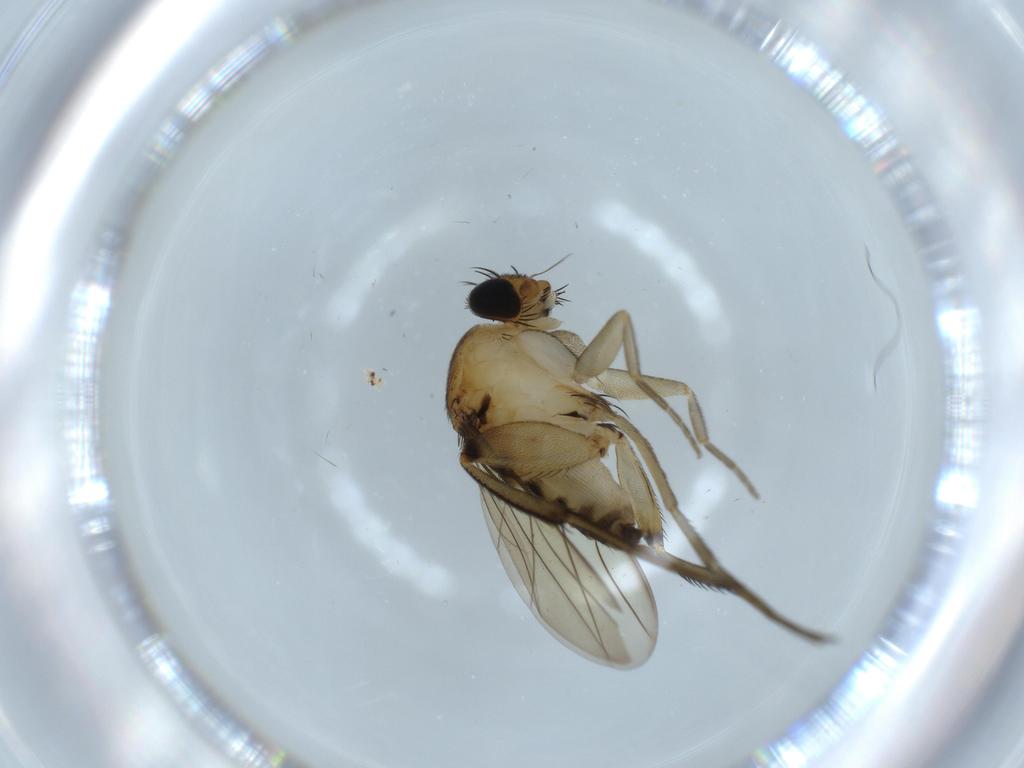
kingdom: Animalia
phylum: Arthropoda
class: Insecta
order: Diptera
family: Phoridae
